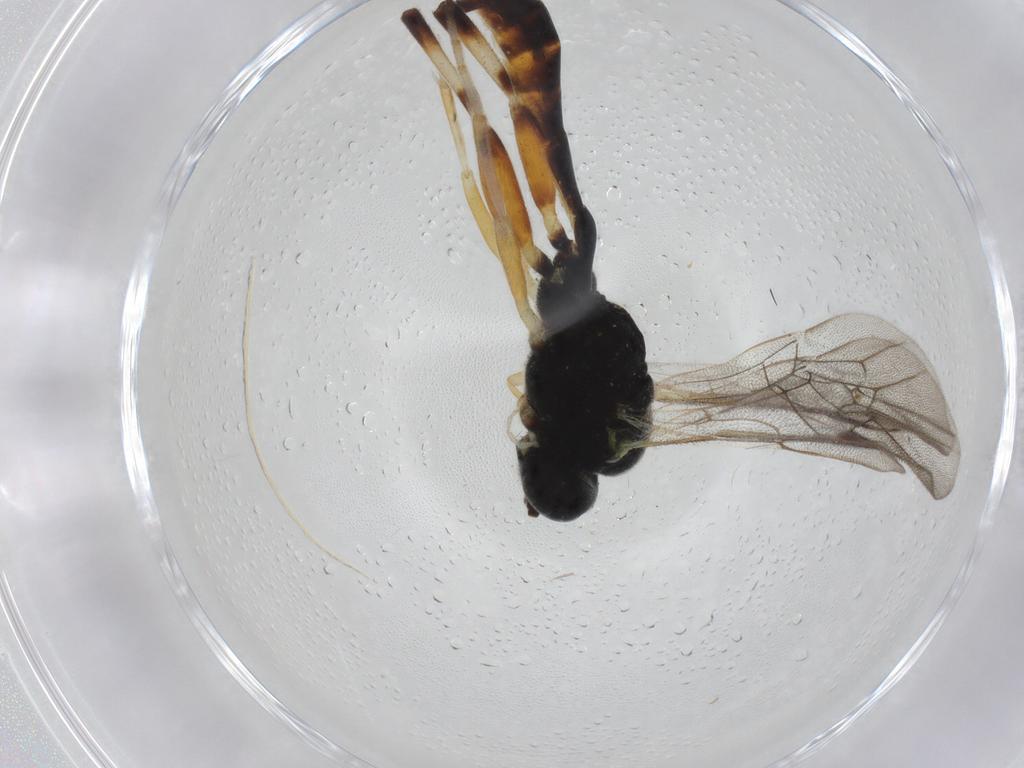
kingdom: Animalia
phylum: Arthropoda
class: Insecta
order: Hymenoptera
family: Ichneumonidae
